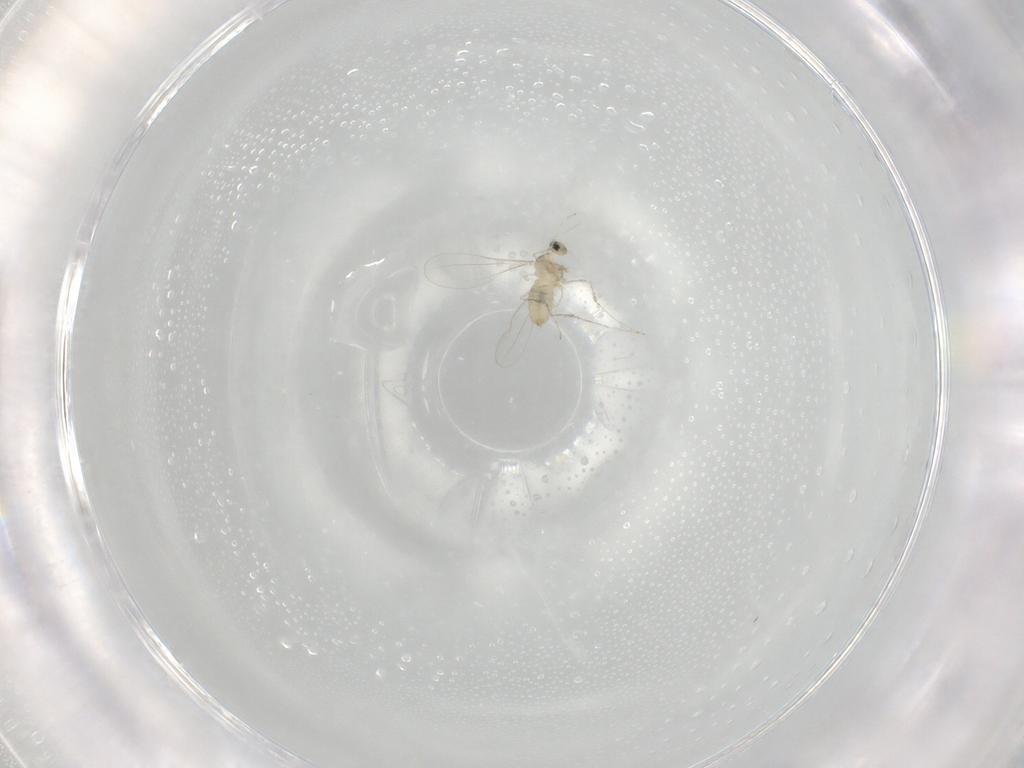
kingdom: Animalia
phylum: Arthropoda
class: Insecta
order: Diptera
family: Cecidomyiidae
